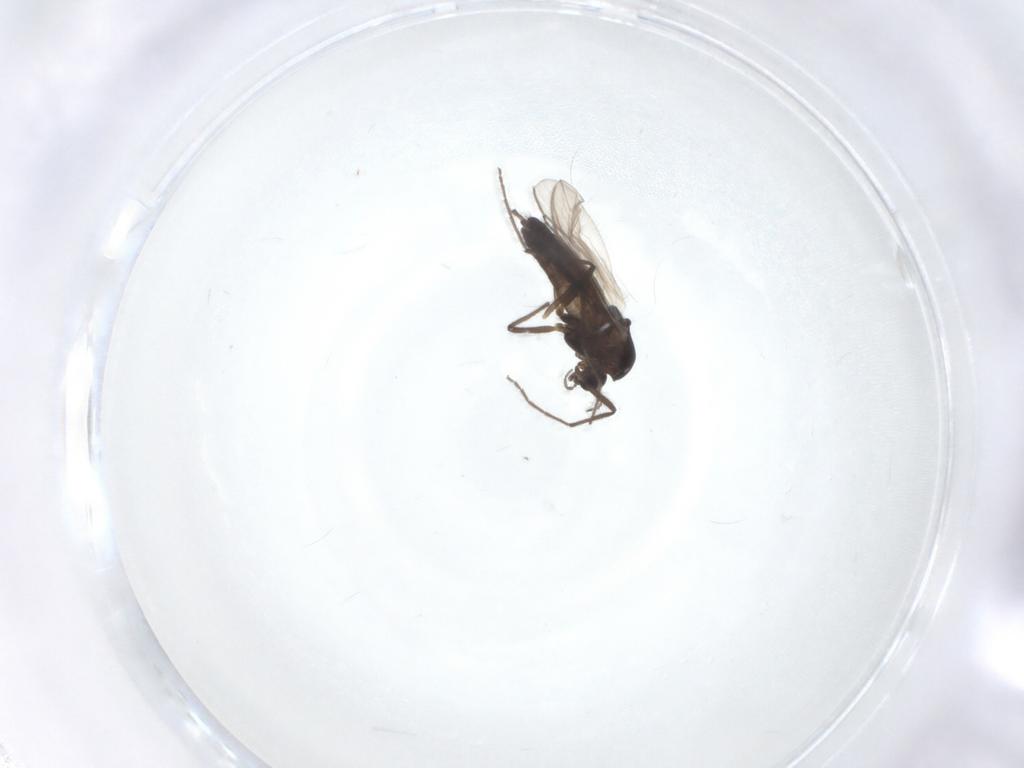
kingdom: Animalia
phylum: Arthropoda
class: Insecta
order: Diptera
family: Chironomidae
